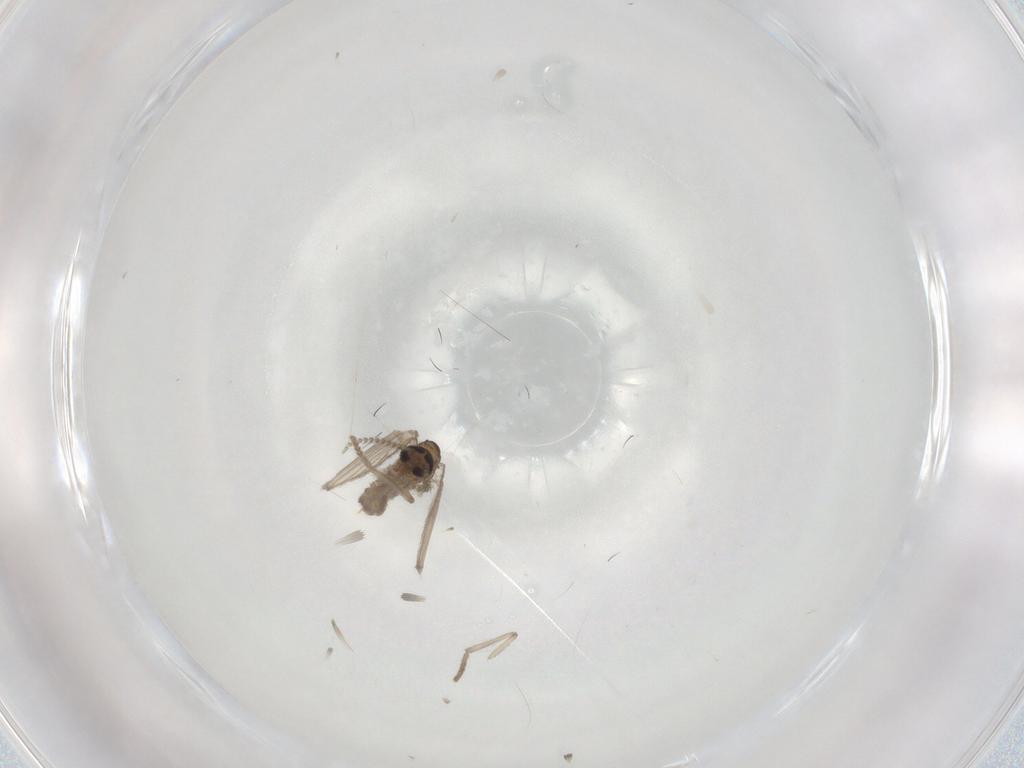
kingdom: Animalia
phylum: Arthropoda
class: Insecta
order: Diptera
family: Psychodidae
